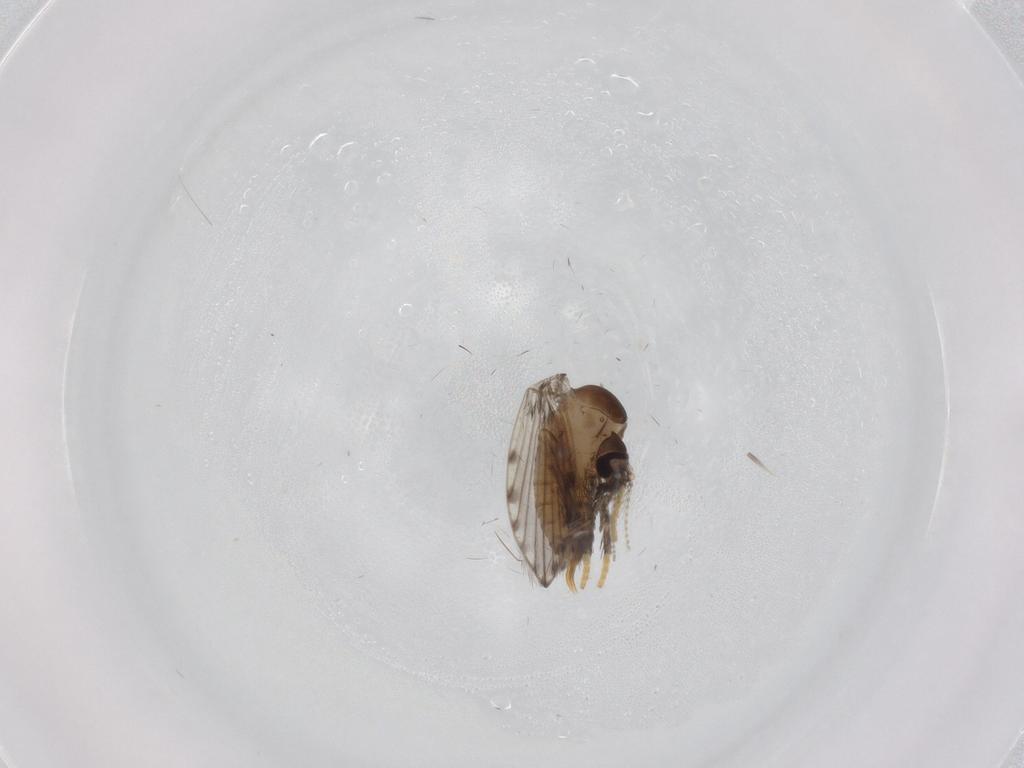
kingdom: Animalia
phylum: Arthropoda
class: Insecta
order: Diptera
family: Psychodidae
